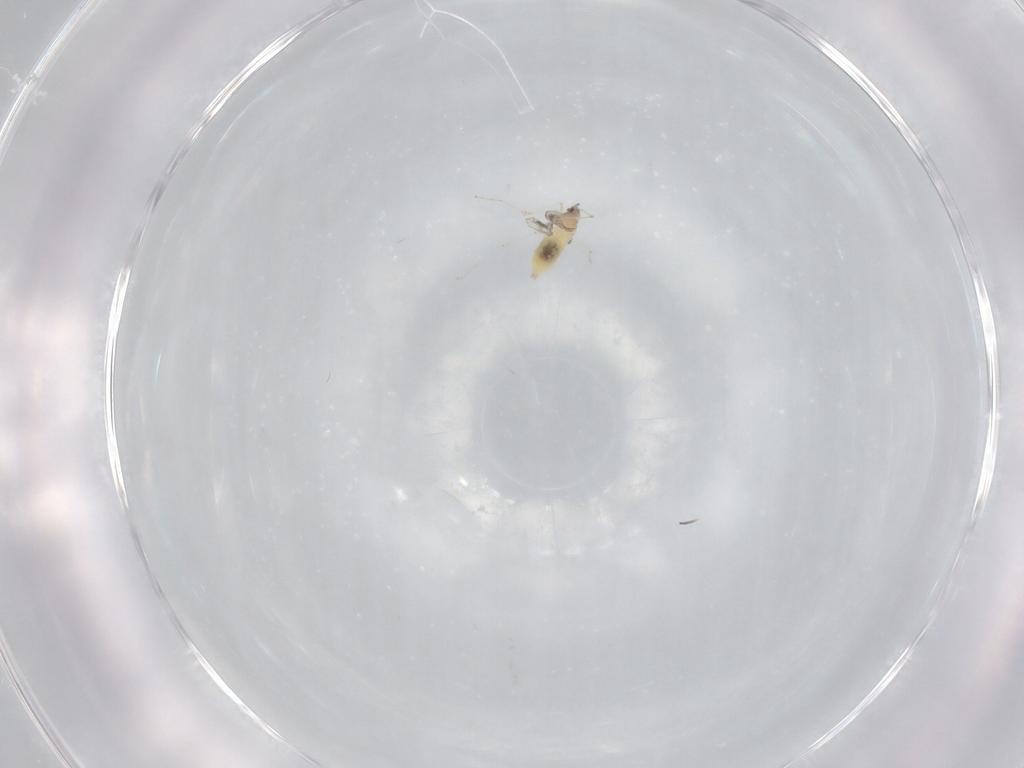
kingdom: Animalia
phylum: Arthropoda
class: Insecta
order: Diptera
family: Cecidomyiidae
